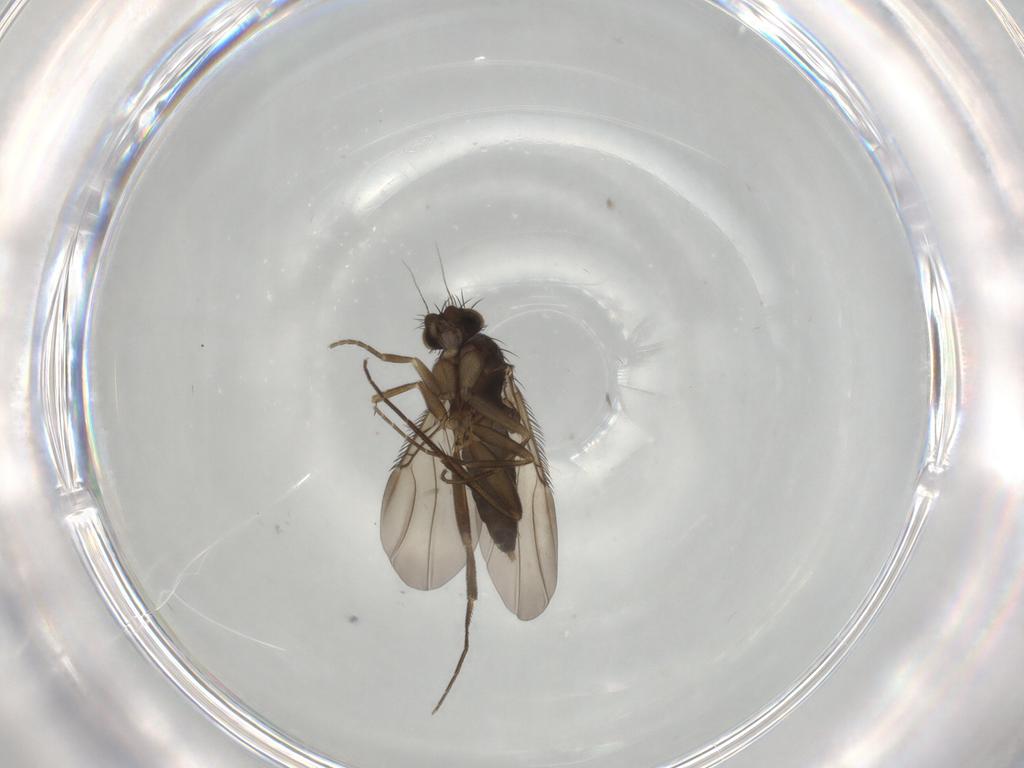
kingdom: Animalia
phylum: Arthropoda
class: Insecta
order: Diptera
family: Phoridae
